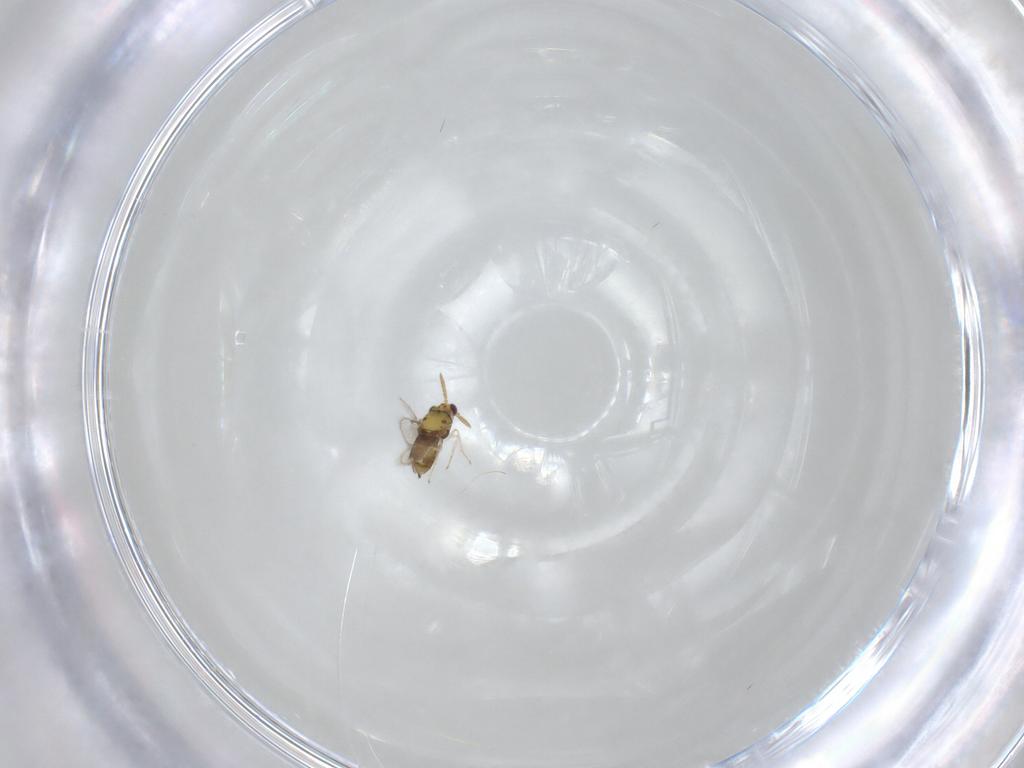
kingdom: Animalia
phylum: Arthropoda
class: Insecta
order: Hymenoptera
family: Aphelinidae
